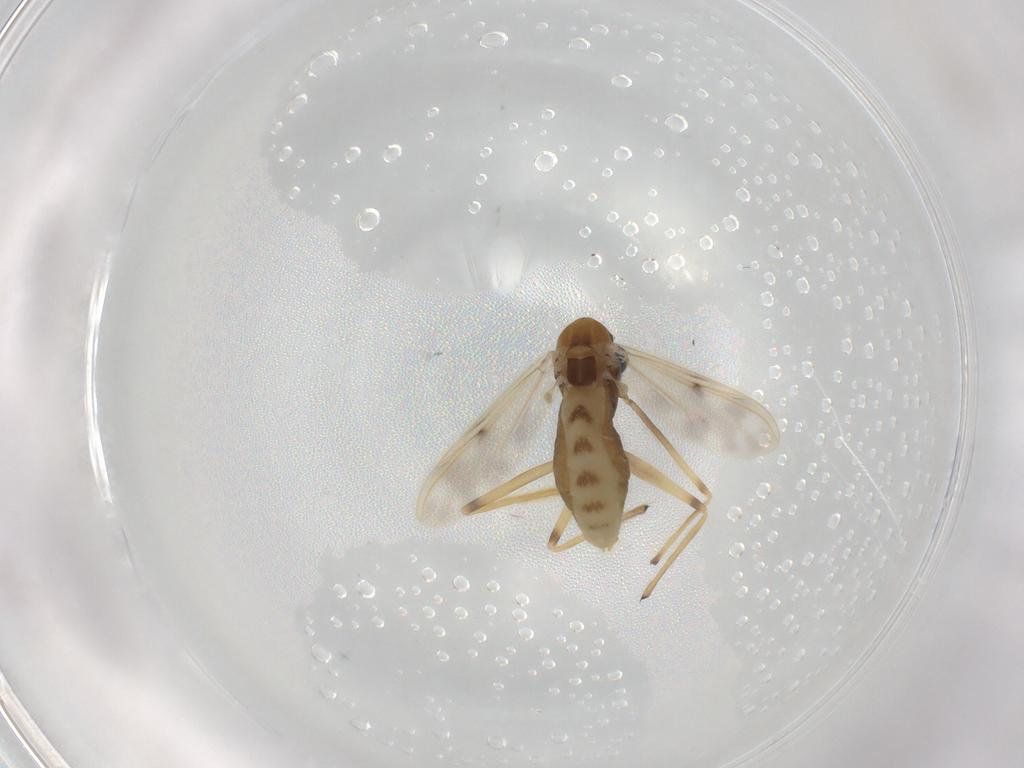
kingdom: Animalia
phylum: Arthropoda
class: Insecta
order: Diptera
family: Chironomidae
